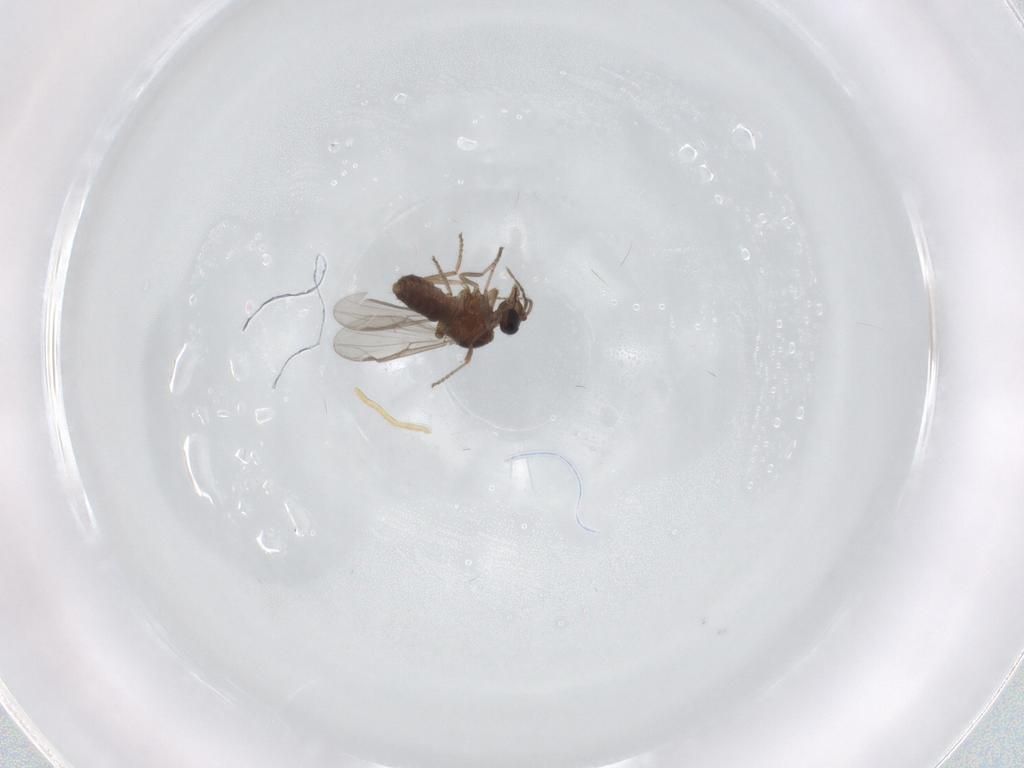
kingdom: Animalia
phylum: Arthropoda
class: Insecta
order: Diptera
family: Ceratopogonidae
